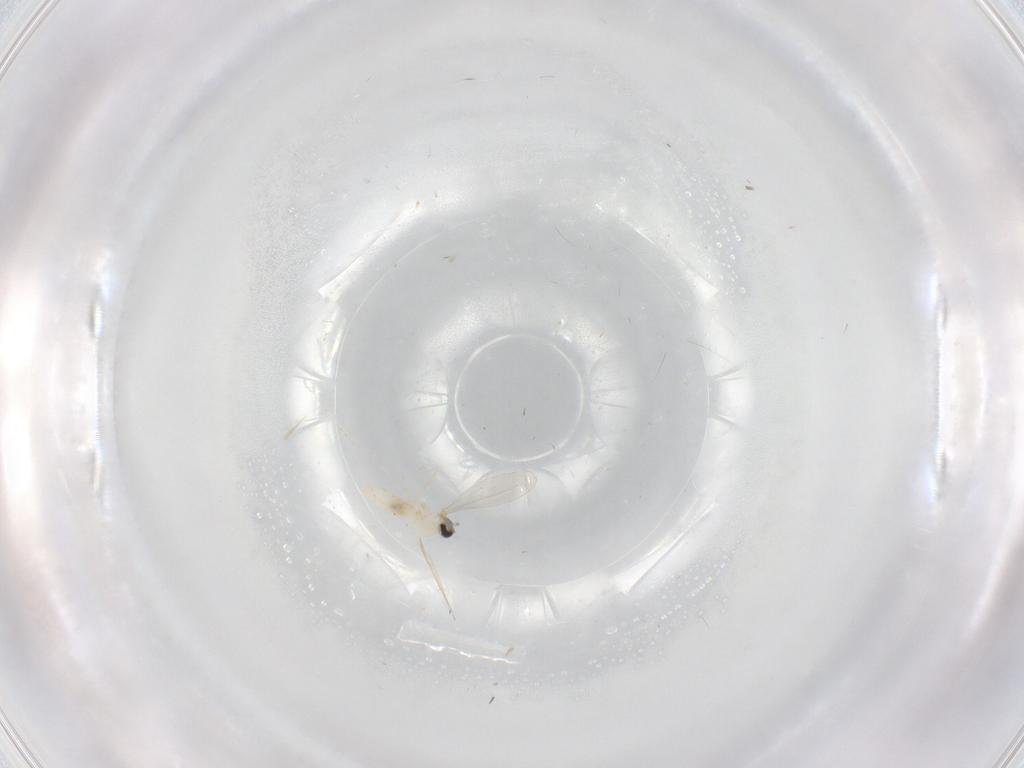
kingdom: Animalia
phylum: Arthropoda
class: Insecta
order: Diptera
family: Cecidomyiidae
